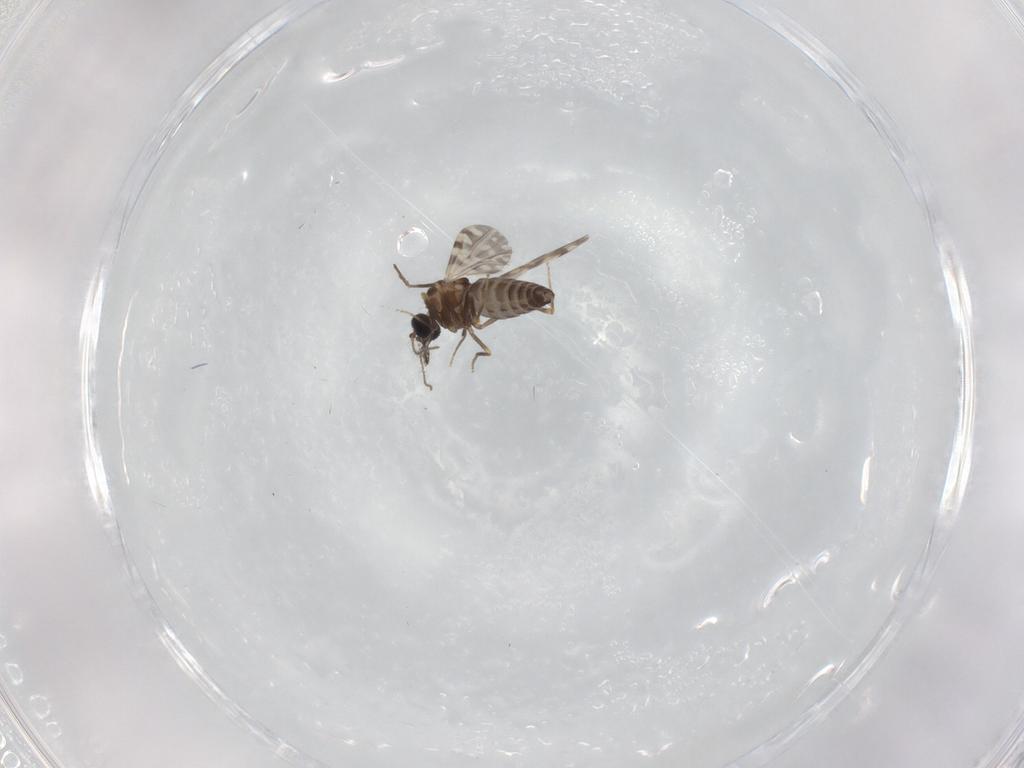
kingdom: Animalia
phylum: Arthropoda
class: Insecta
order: Diptera
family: Ceratopogonidae
